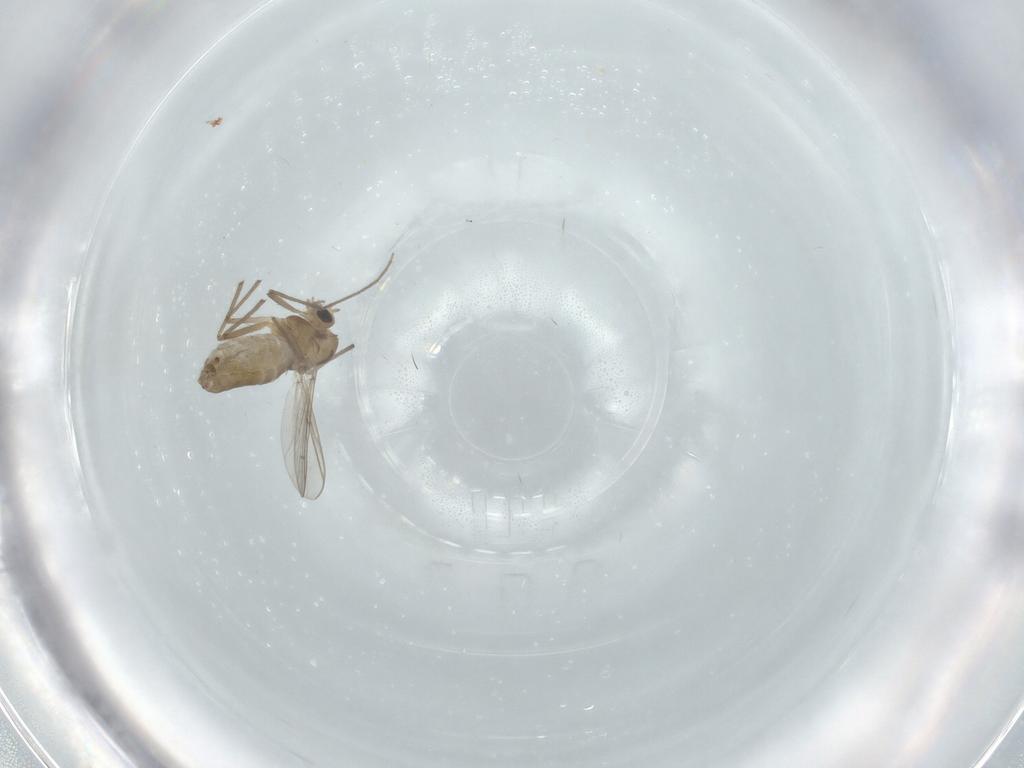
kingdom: Animalia
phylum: Arthropoda
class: Insecta
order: Diptera
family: Chironomidae
